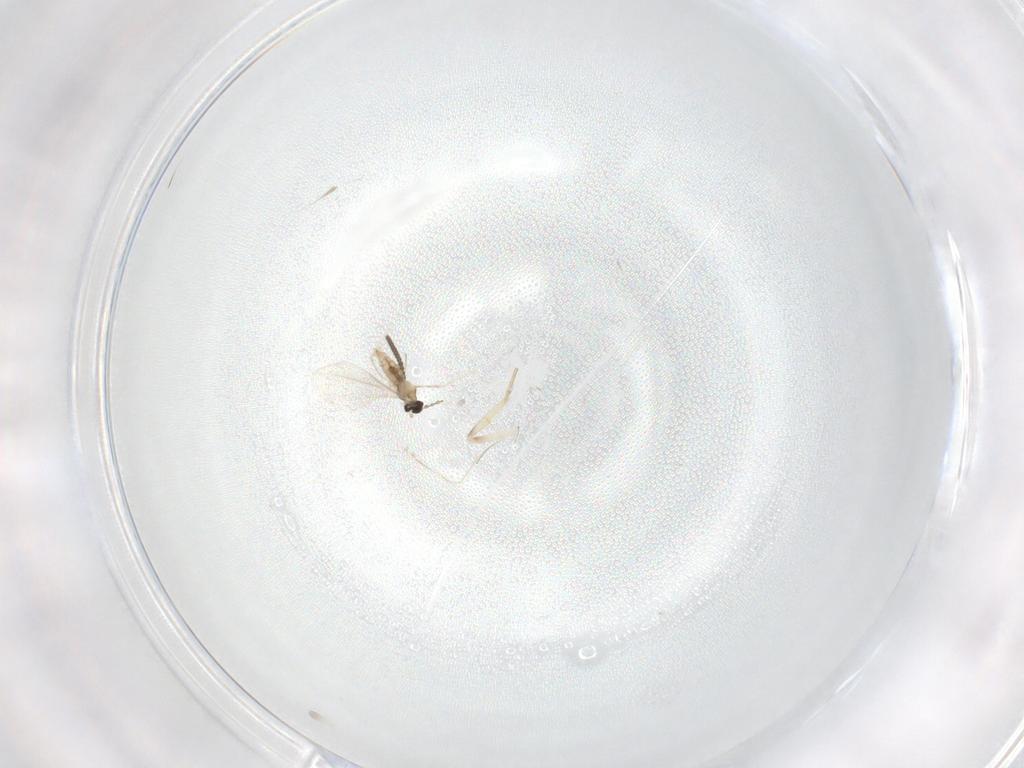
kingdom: Animalia
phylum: Arthropoda
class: Insecta
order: Diptera
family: Sciaridae
